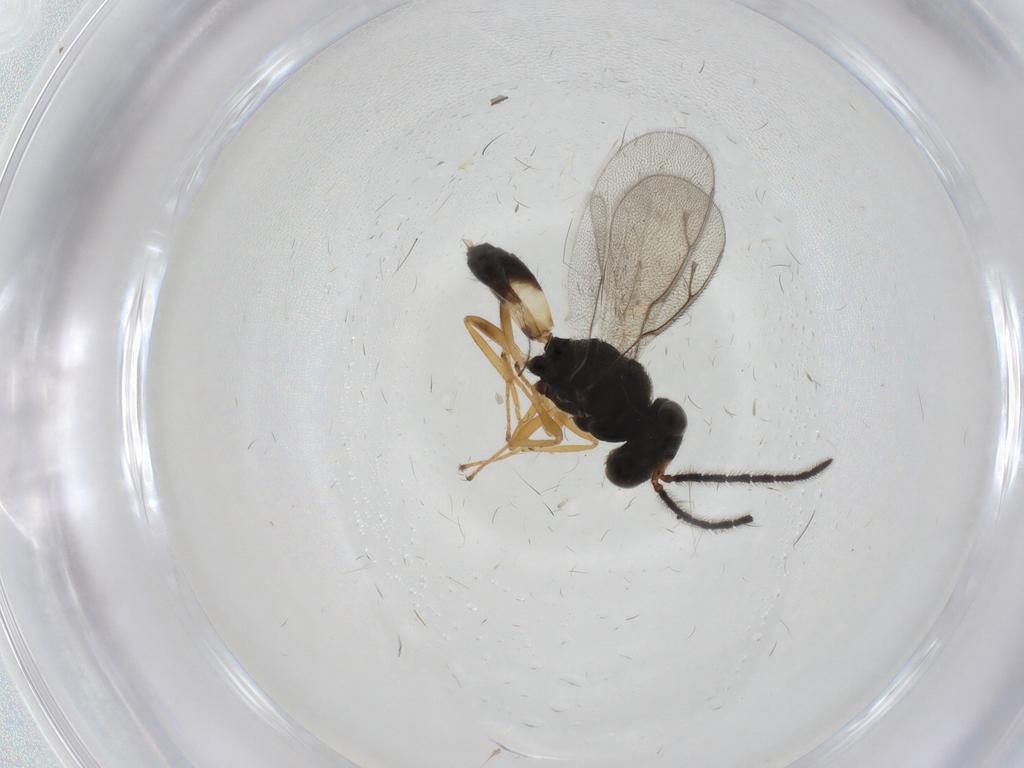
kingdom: Animalia
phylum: Arthropoda
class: Insecta
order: Hymenoptera
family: Pteromalidae
